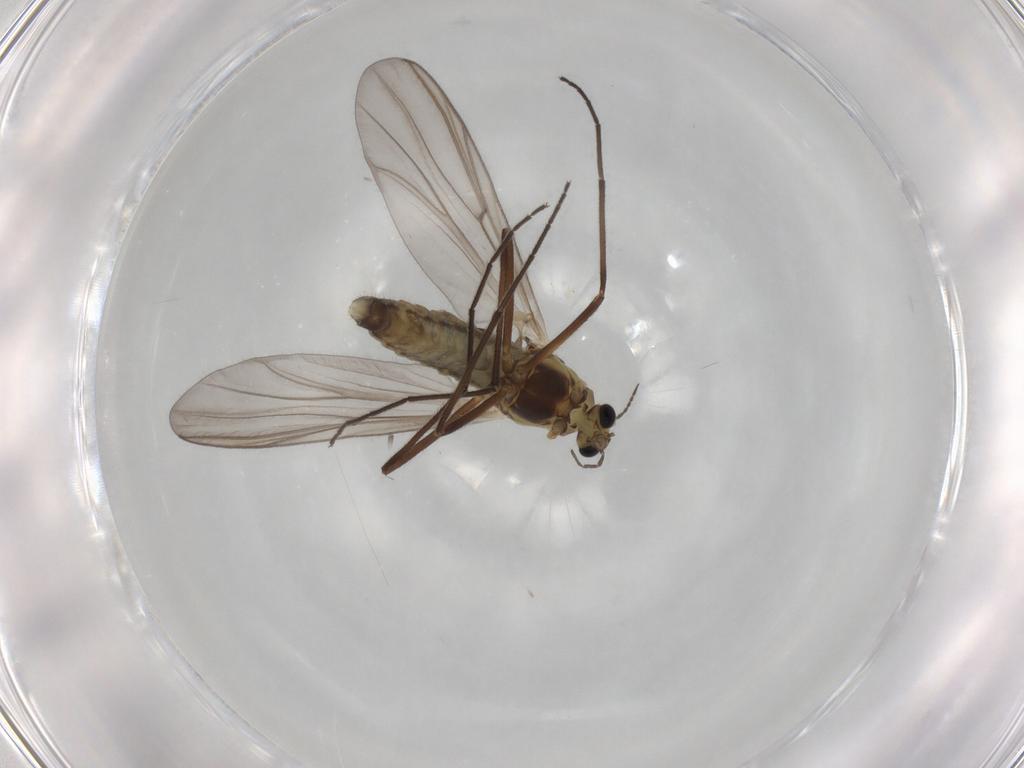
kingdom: Animalia
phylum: Arthropoda
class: Insecta
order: Diptera
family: Chironomidae
